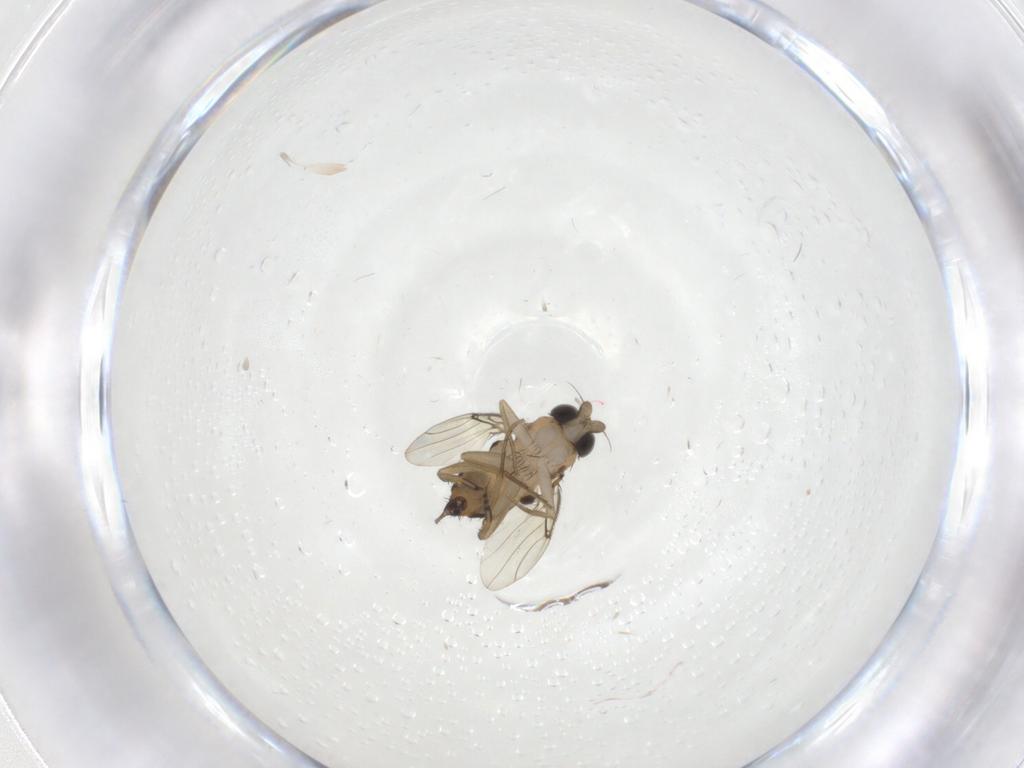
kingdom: Animalia
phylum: Arthropoda
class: Insecta
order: Diptera
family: Phoridae
